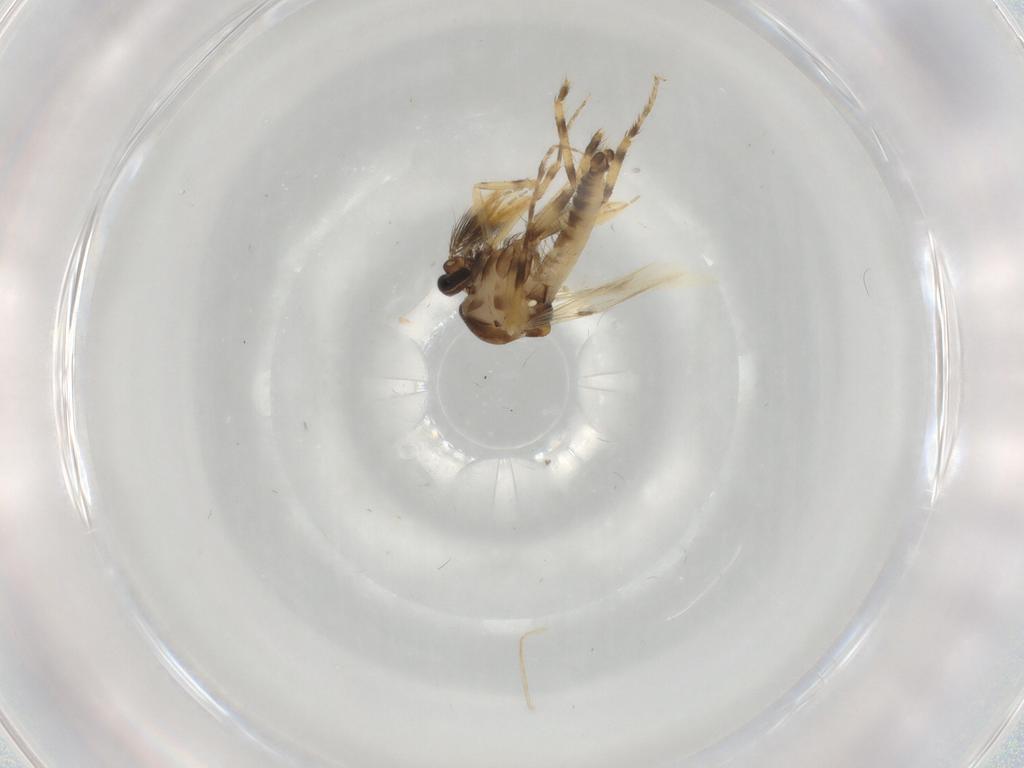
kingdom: Animalia
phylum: Arthropoda
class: Insecta
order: Diptera
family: Ceratopogonidae
